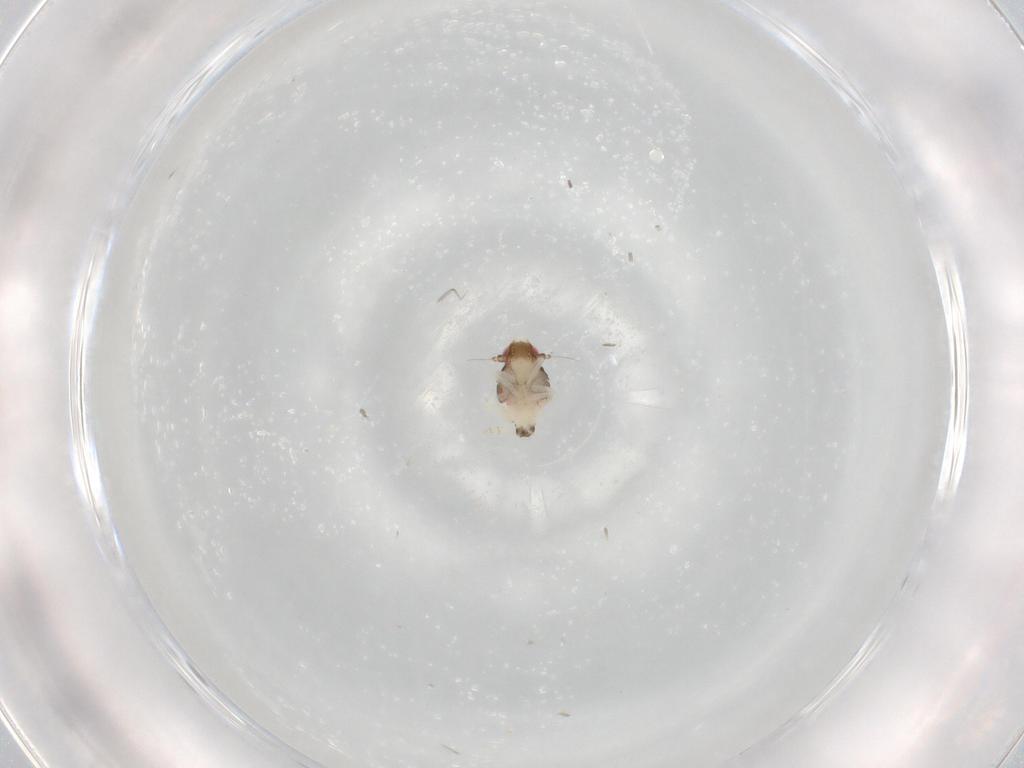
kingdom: Animalia
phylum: Arthropoda
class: Insecta
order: Hemiptera
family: Nogodinidae
